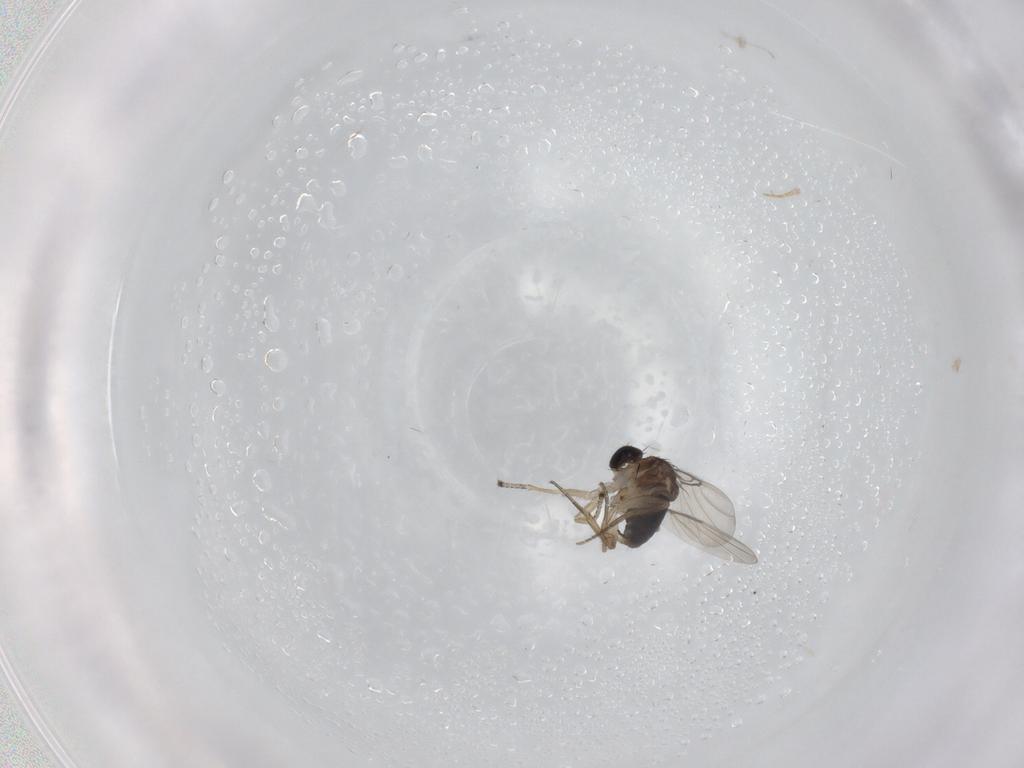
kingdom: Animalia
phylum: Arthropoda
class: Insecta
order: Diptera
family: Phoridae
